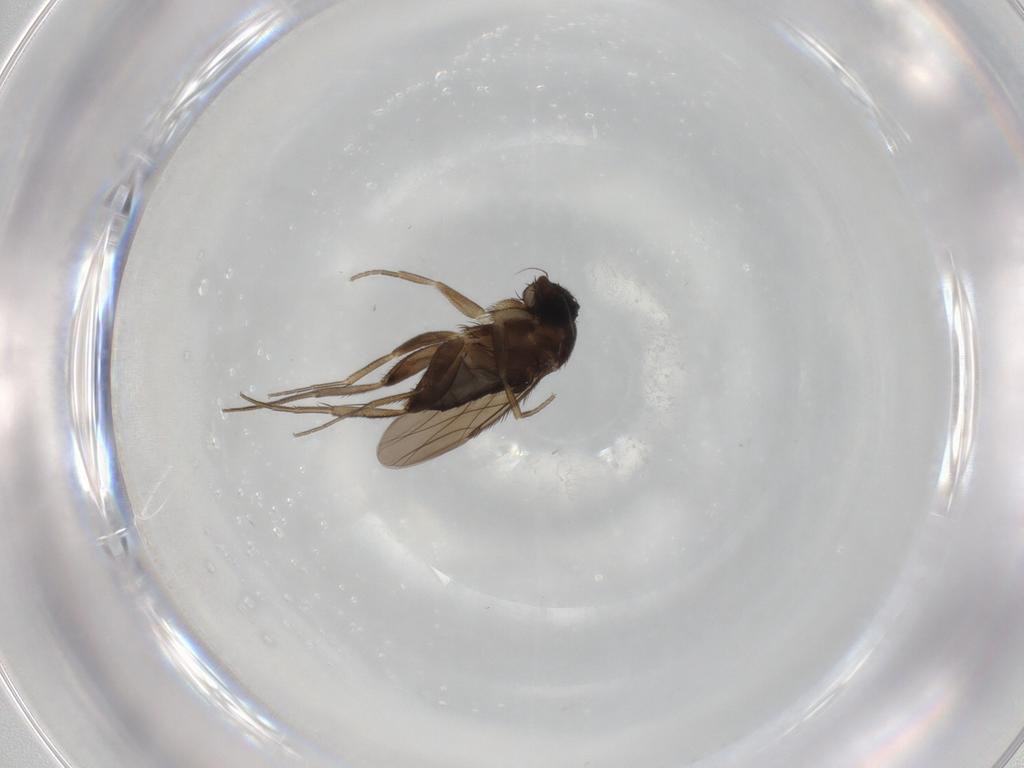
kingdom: Animalia
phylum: Arthropoda
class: Insecta
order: Diptera
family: Phoridae
